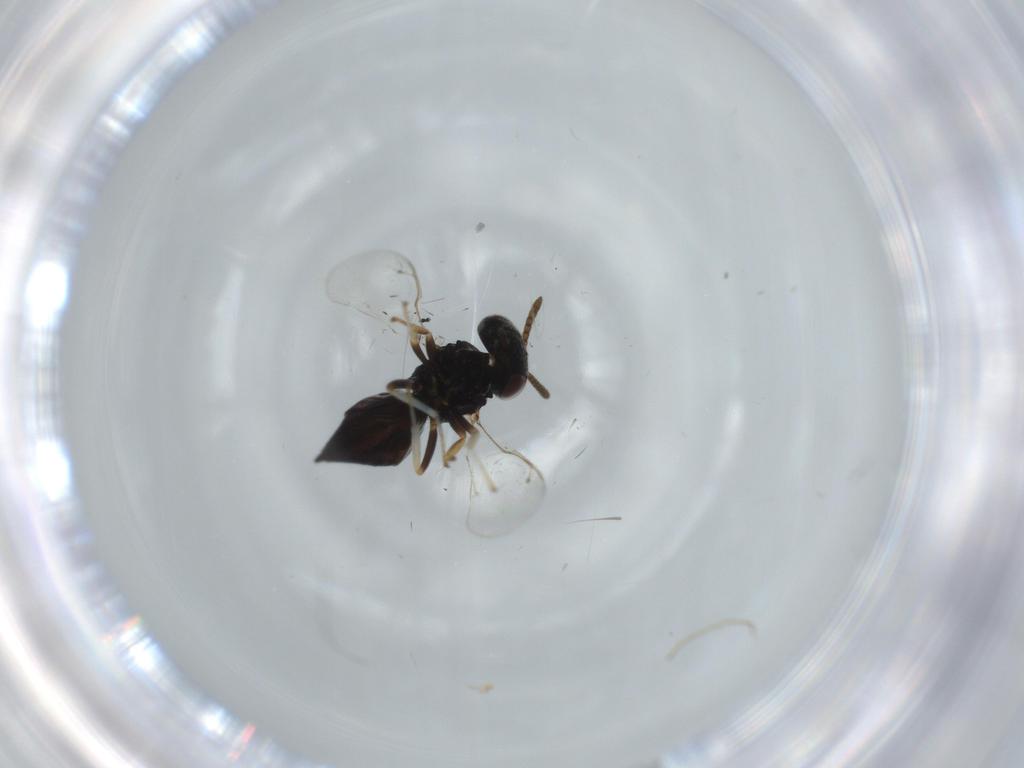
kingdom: Animalia
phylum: Arthropoda
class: Insecta
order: Hymenoptera
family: Pteromalidae
